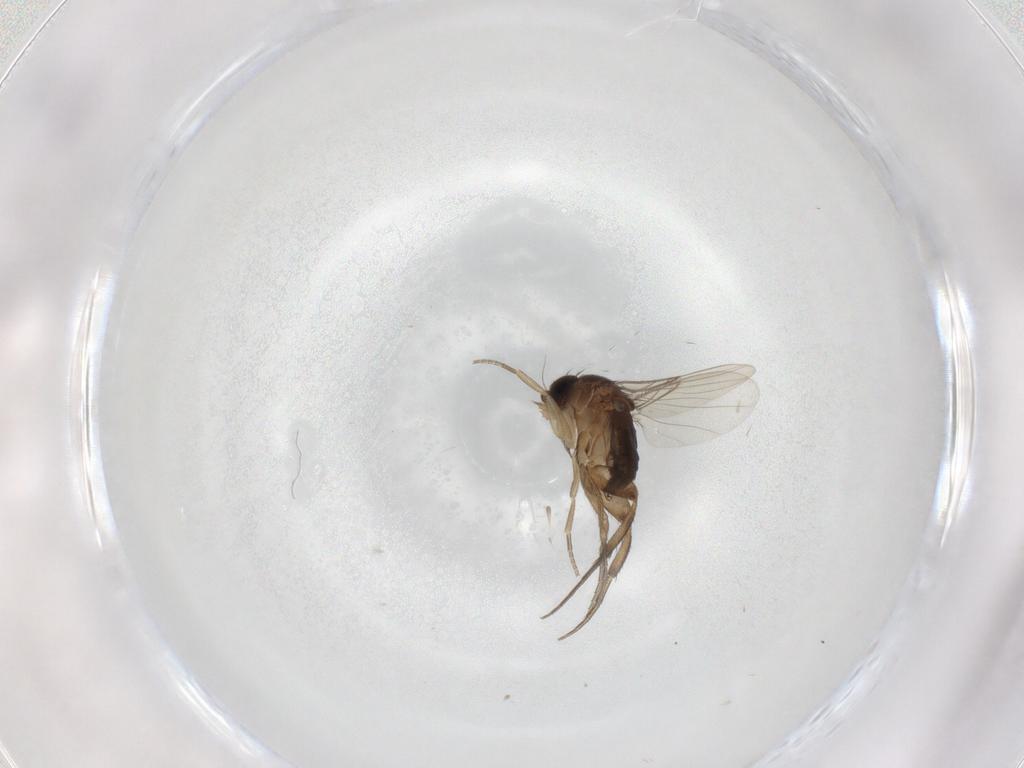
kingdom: Animalia
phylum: Arthropoda
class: Insecta
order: Diptera
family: Phoridae
